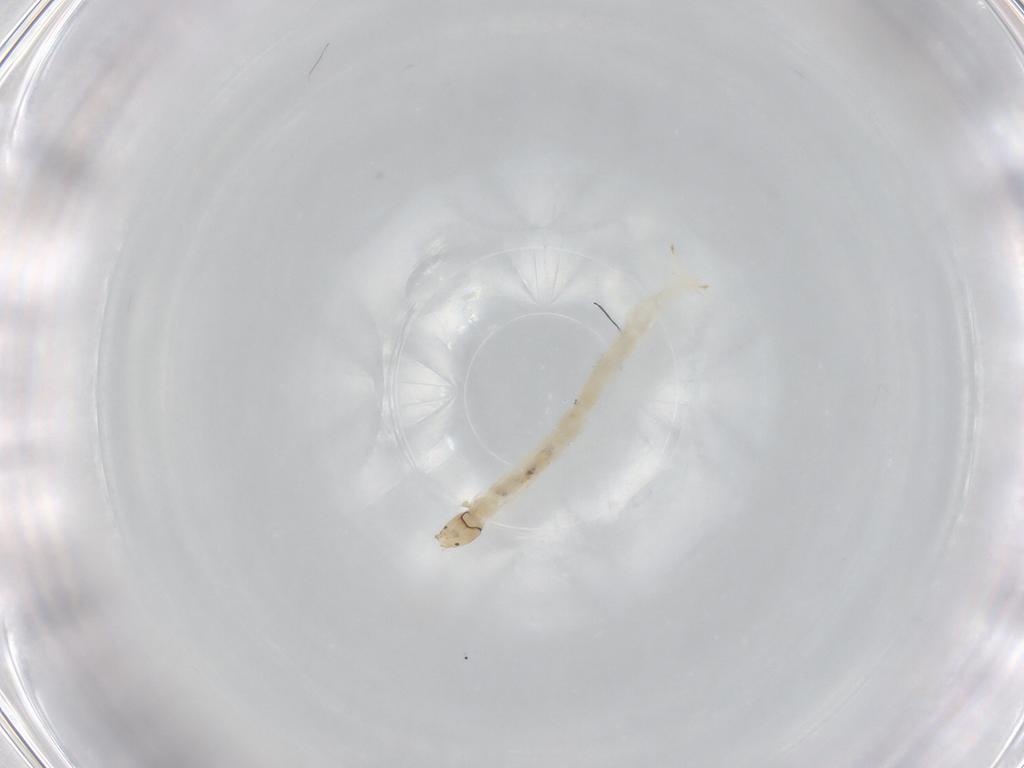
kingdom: Animalia
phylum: Arthropoda
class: Insecta
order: Diptera
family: Chironomidae
